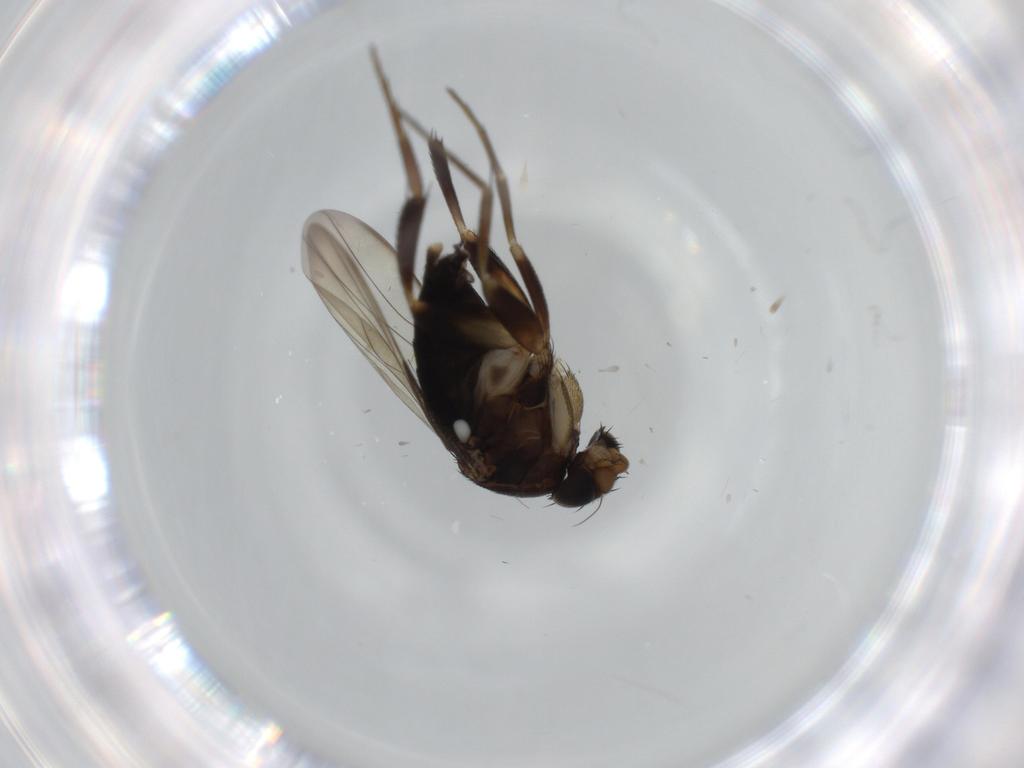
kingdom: Animalia
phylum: Arthropoda
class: Insecta
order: Diptera
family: Phoridae
